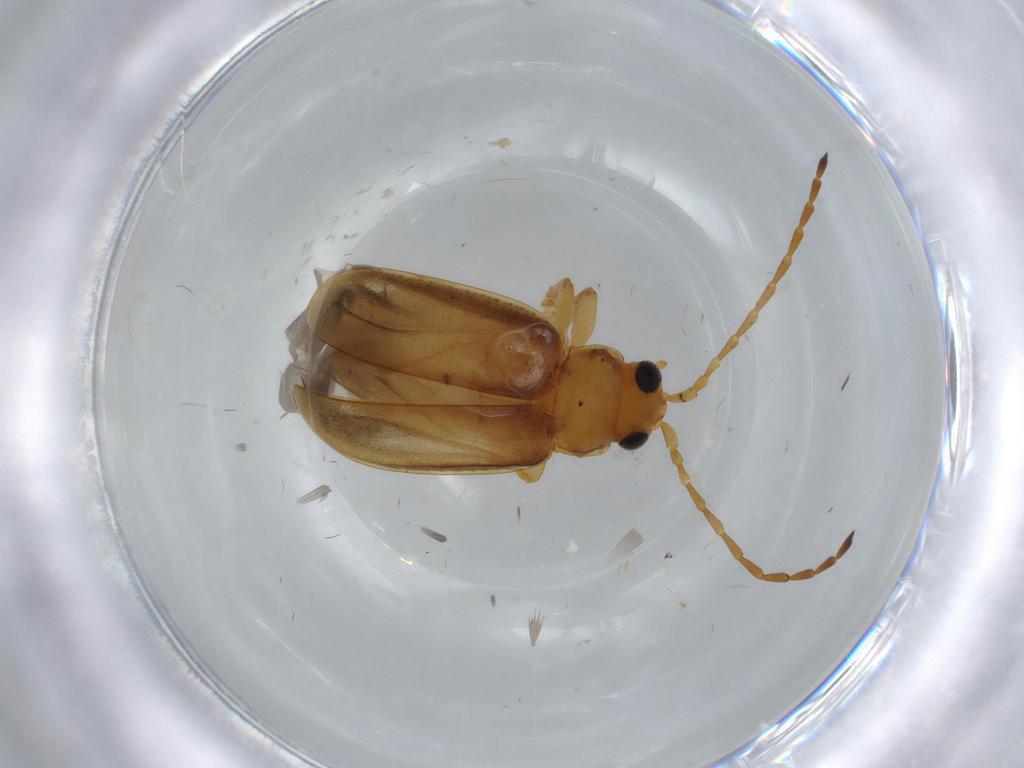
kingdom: Animalia
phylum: Arthropoda
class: Insecta
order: Coleoptera
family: Chrysomelidae
